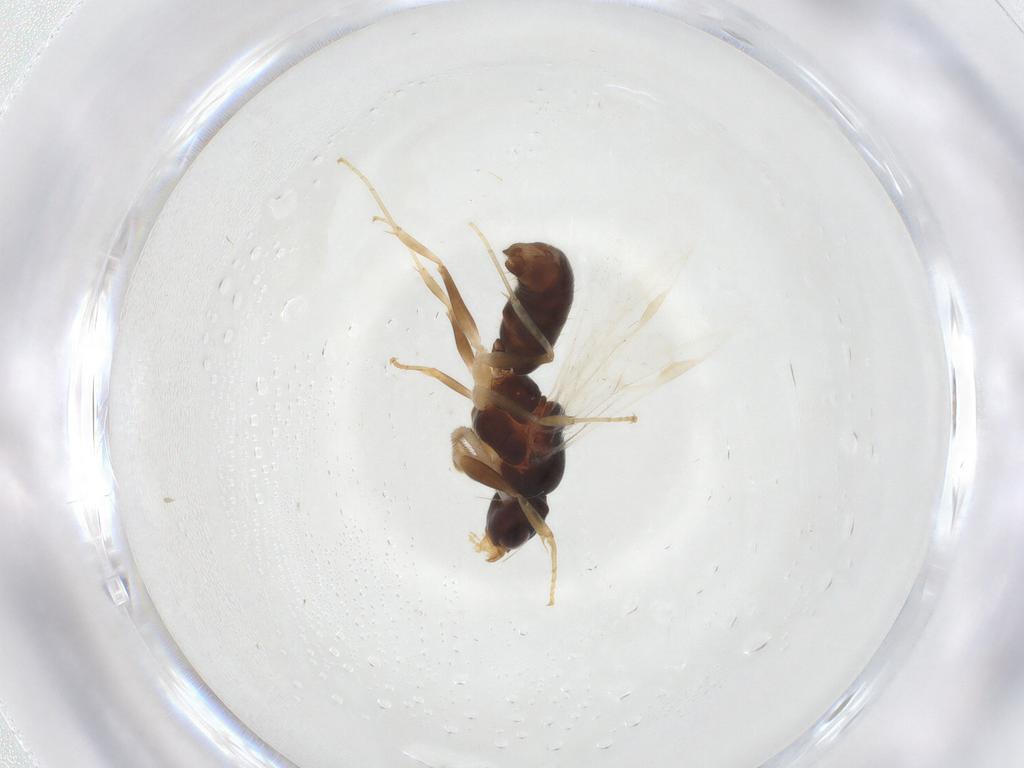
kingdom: Animalia
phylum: Arthropoda
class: Insecta
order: Hymenoptera
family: Formicidae
